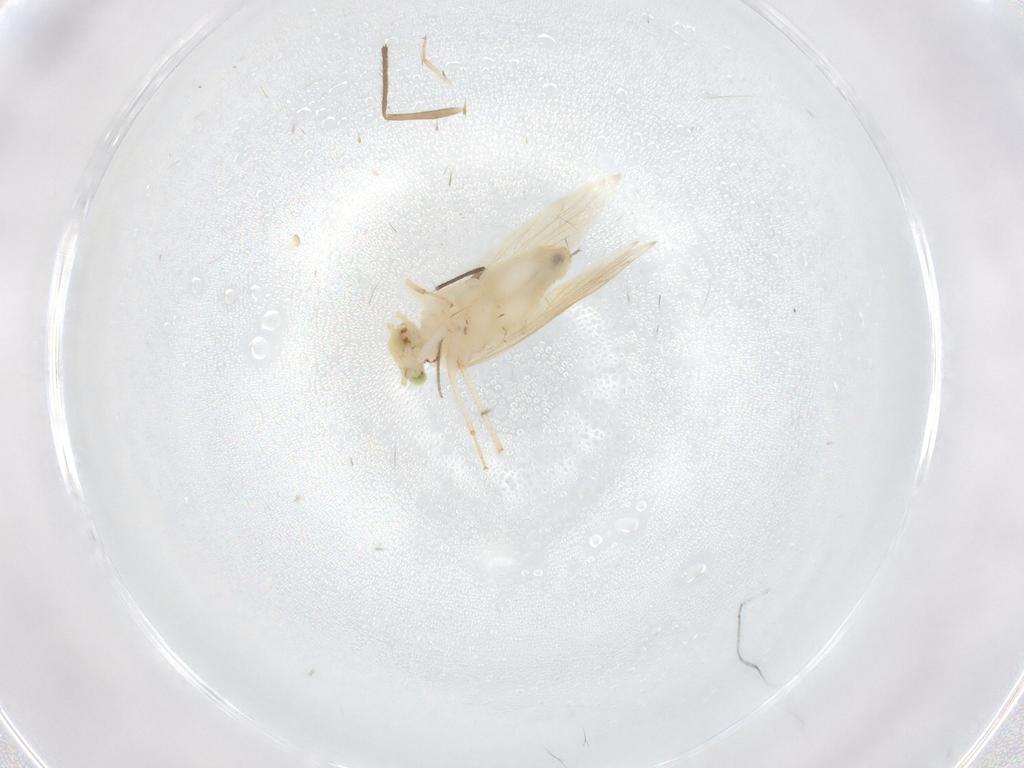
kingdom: Animalia
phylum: Arthropoda
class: Insecta
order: Psocodea
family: Lepidopsocidae
